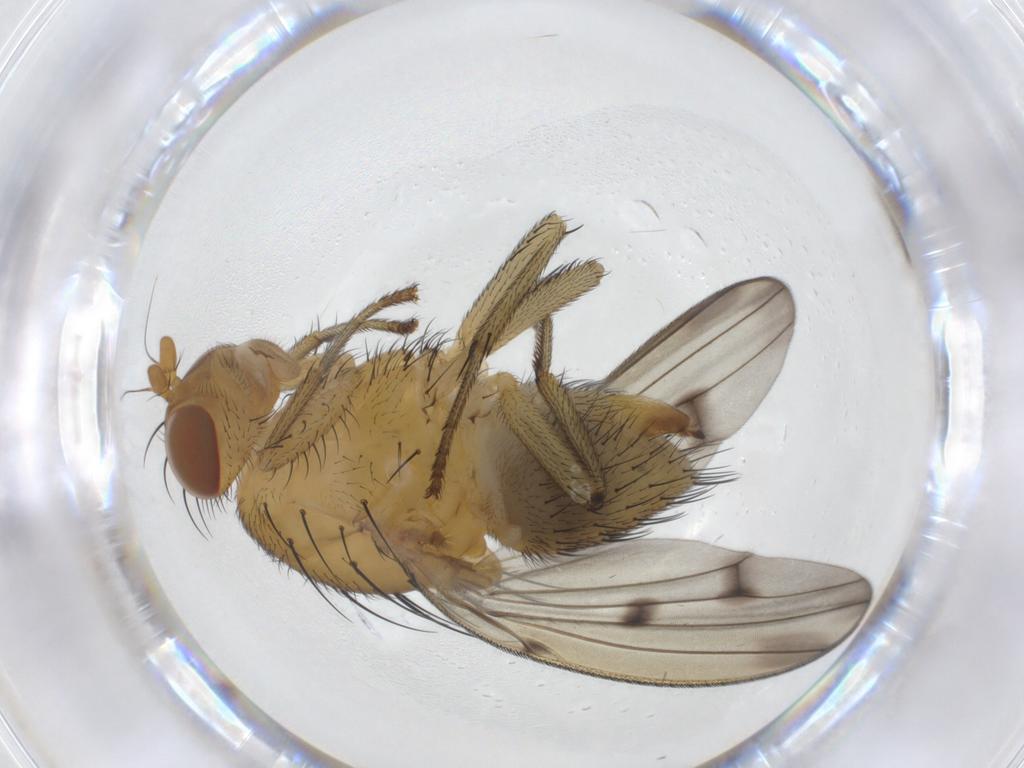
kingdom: Animalia
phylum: Arthropoda
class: Insecta
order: Diptera
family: Lauxaniidae
